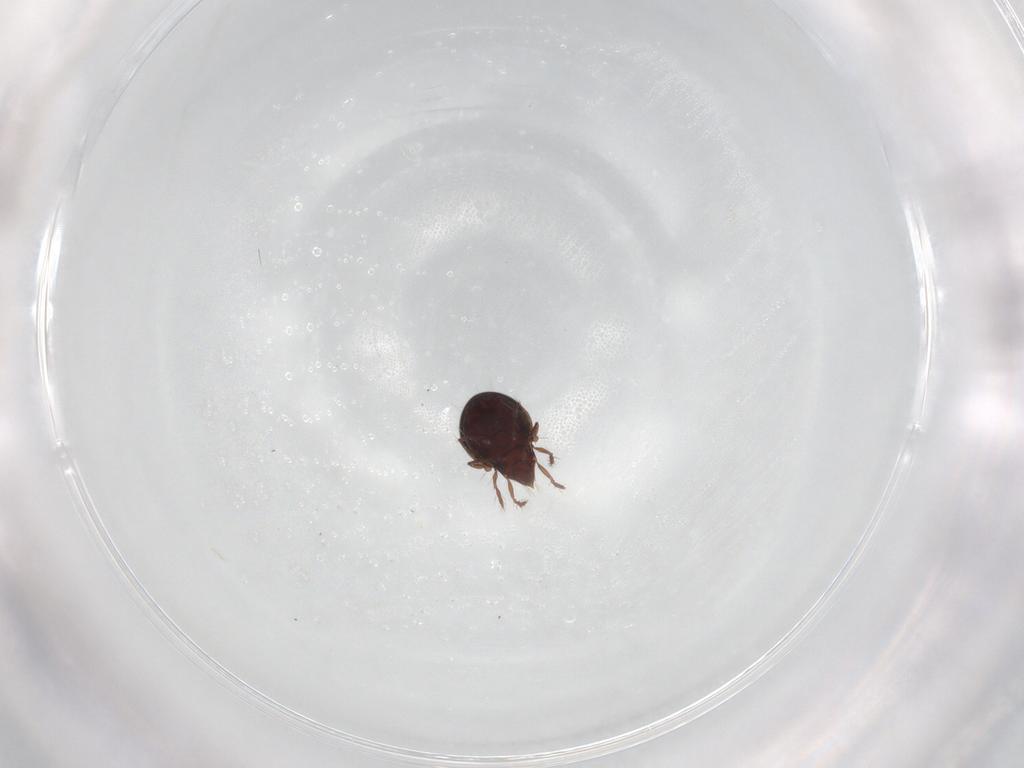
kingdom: Animalia
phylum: Arthropoda
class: Arachnida
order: Sarcoptiformes
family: Ceratoppiidae
